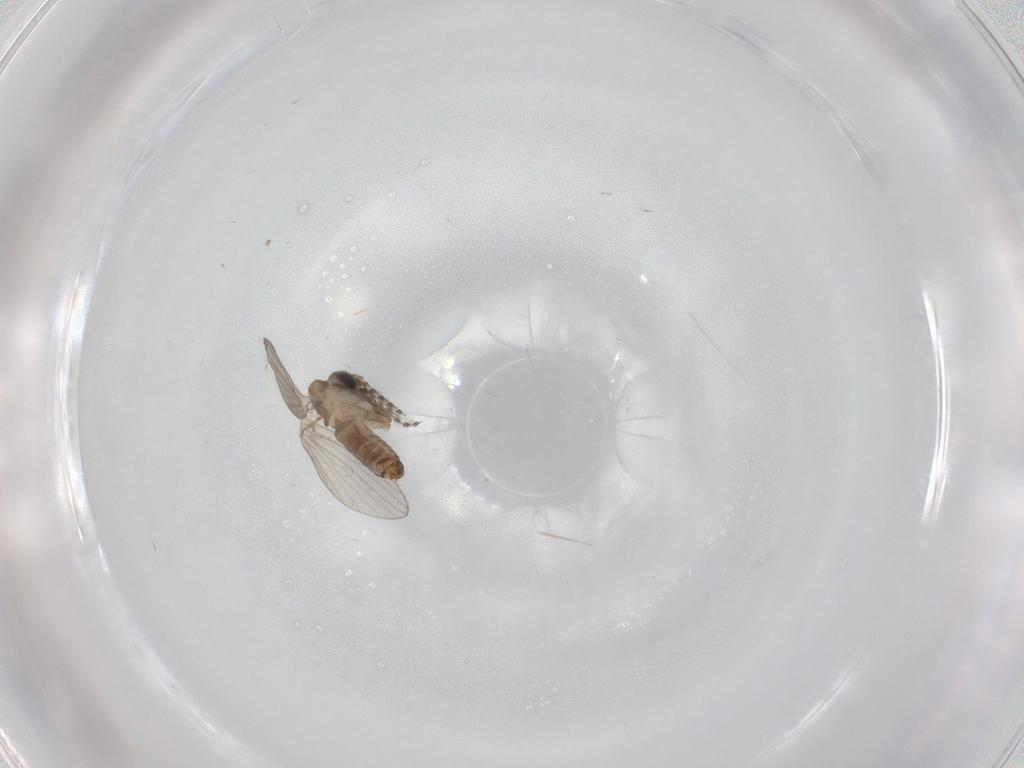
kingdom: Animalia
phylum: Arthropoda
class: Insecta
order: Diptera
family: Psychodidae
